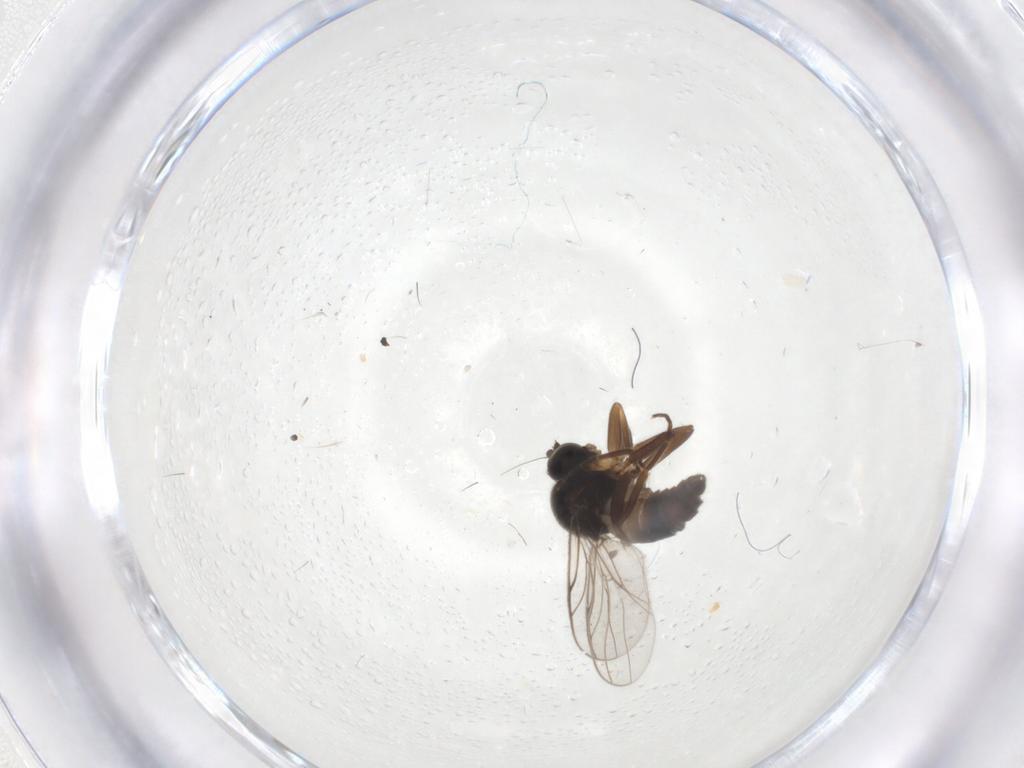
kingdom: Animalia
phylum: Arthropoda
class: Insecta
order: Diptera
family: Hybotidae
